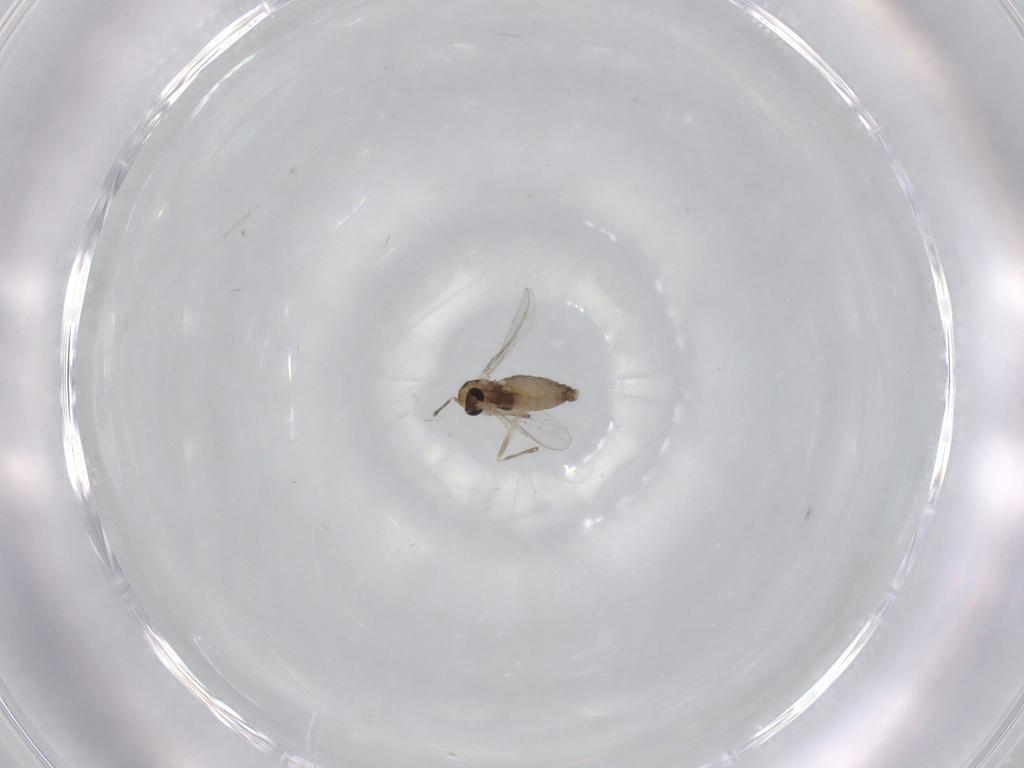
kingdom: Animalia
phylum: Arthropoda
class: Insecta
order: Diptera
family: Chironomidae
